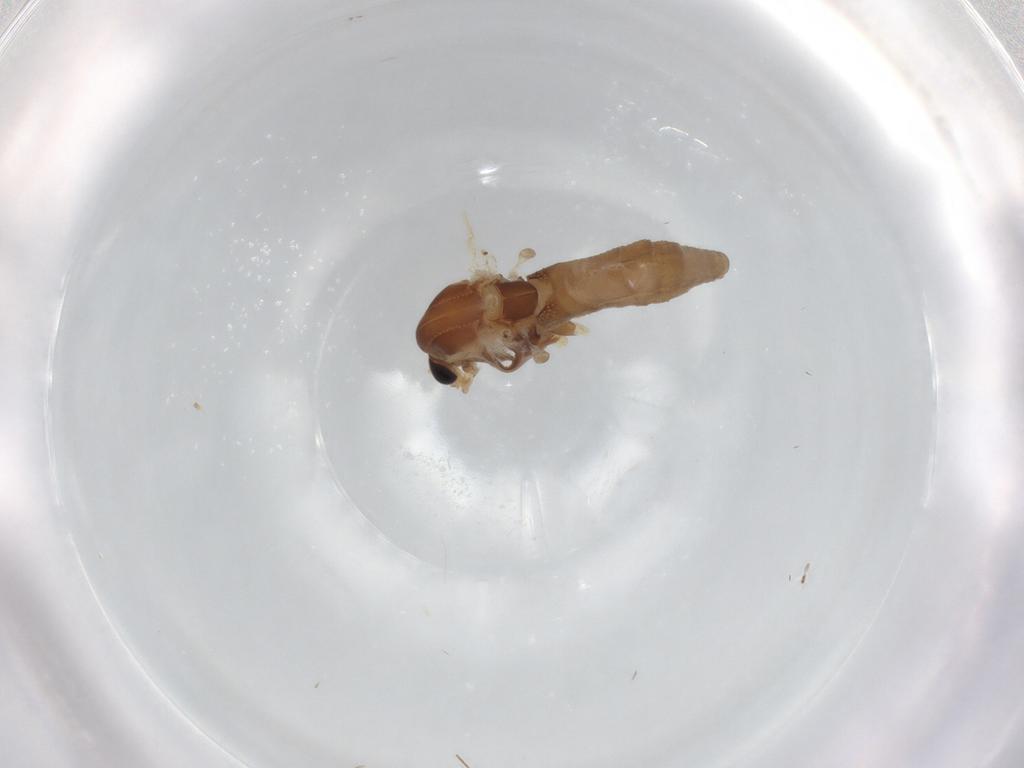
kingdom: Animalia
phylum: Arthropoda
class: Insecta
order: Diptera
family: Chironomidae
